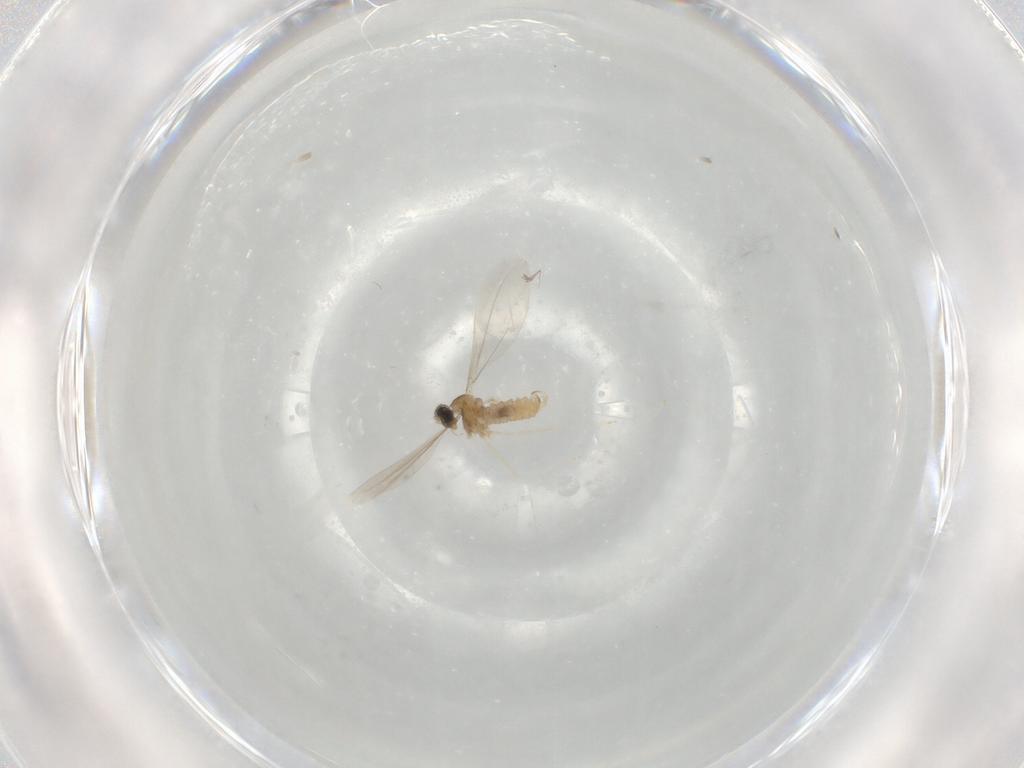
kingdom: Animalia
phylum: Arthropoda
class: Insecta
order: Diptera
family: Cecidomyiidae
